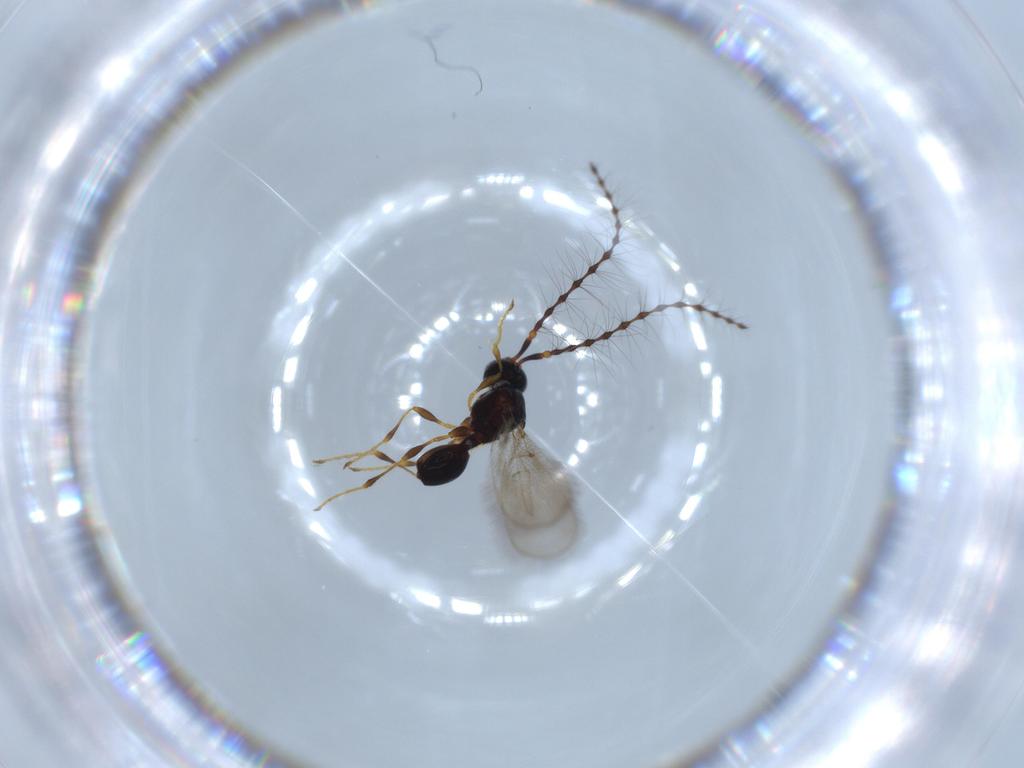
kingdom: Animalia
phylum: Arthropoda
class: Insecta
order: Hymenoptera
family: Diapriidae
